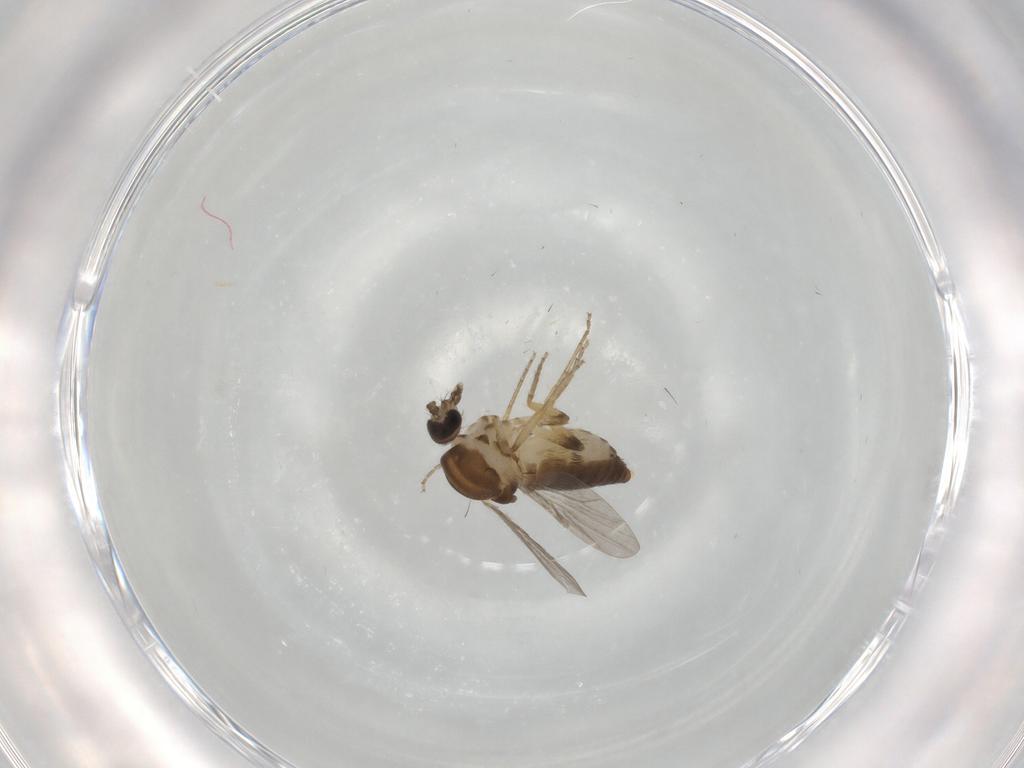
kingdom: Animalia
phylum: Arthropoda
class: Insecta
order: Diptera
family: Ceratopogonidae
